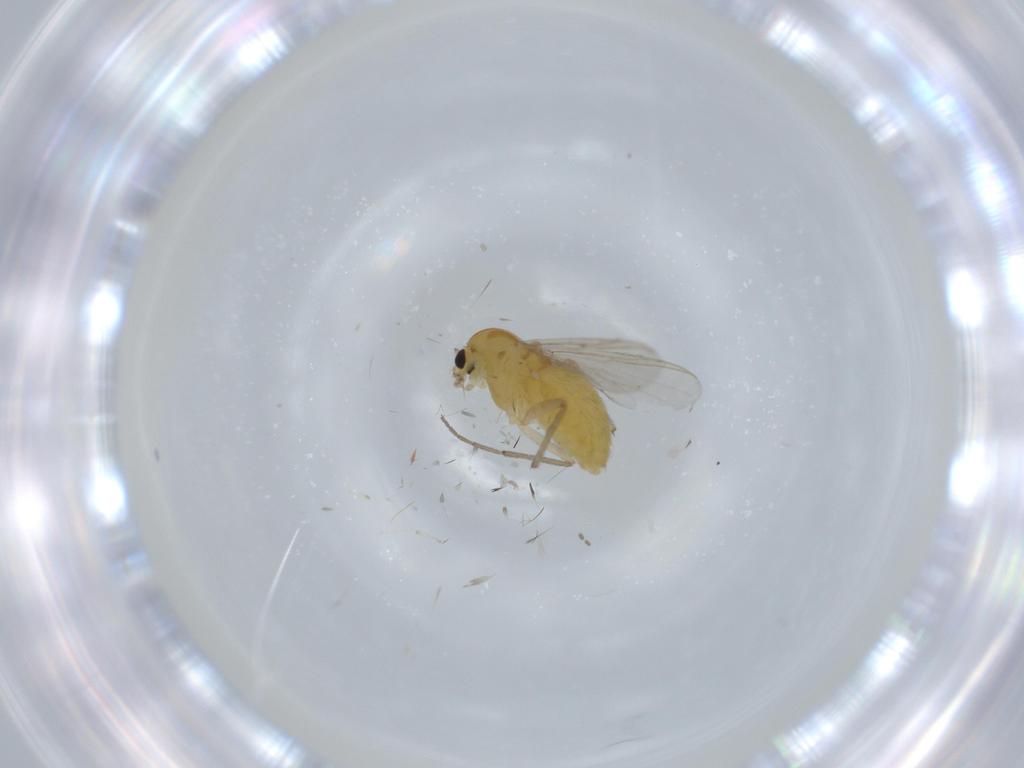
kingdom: Animalia
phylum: Arthropoda
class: Insecta
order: Diptera
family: Chironomidae
